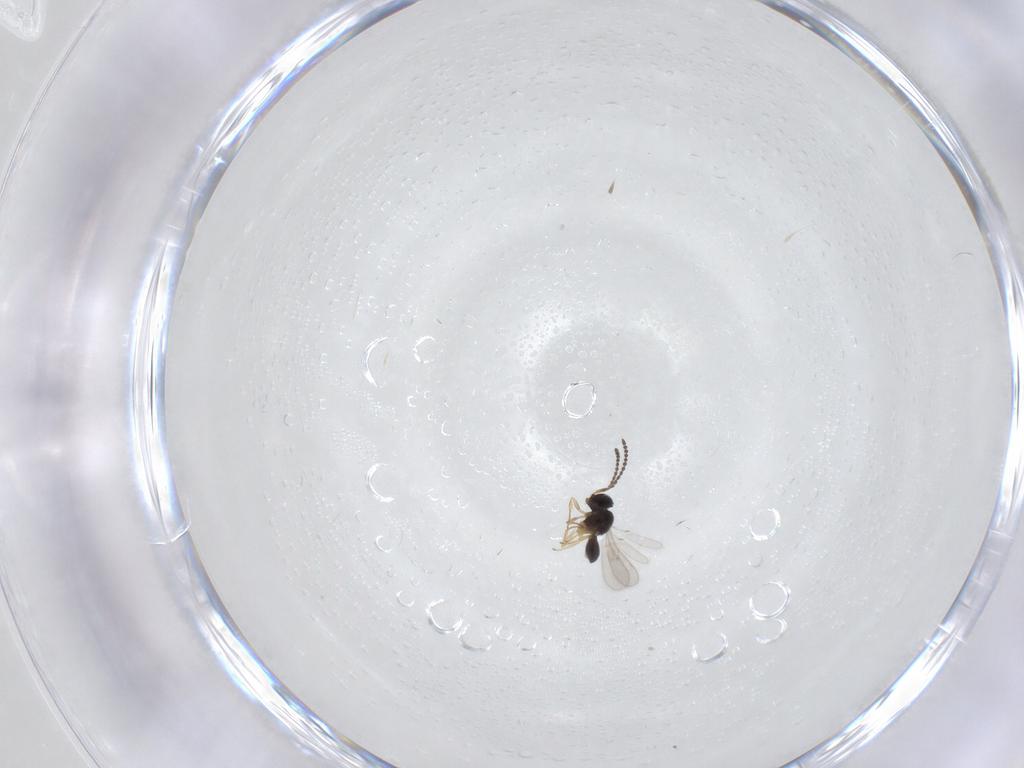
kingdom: Animalia
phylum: Arthropoda
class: Insecta
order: Hymenoptera
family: Scelionidae
